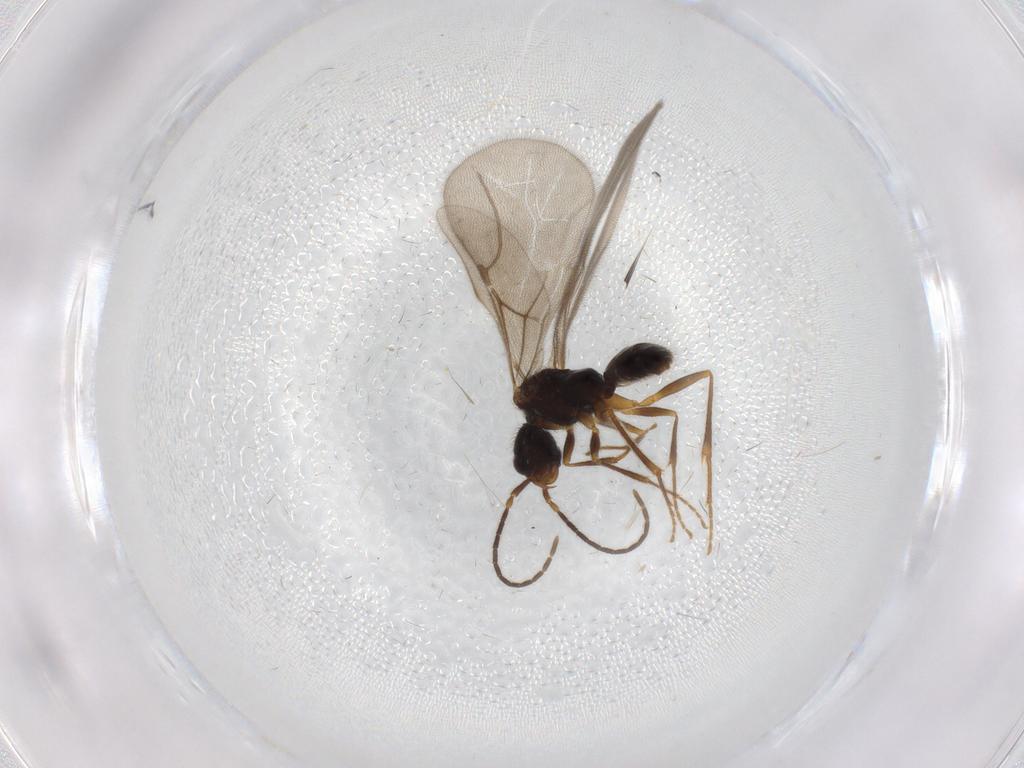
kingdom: Animalia
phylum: Arthropoda
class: Insecta
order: Hymenoptera
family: Bethylidae
